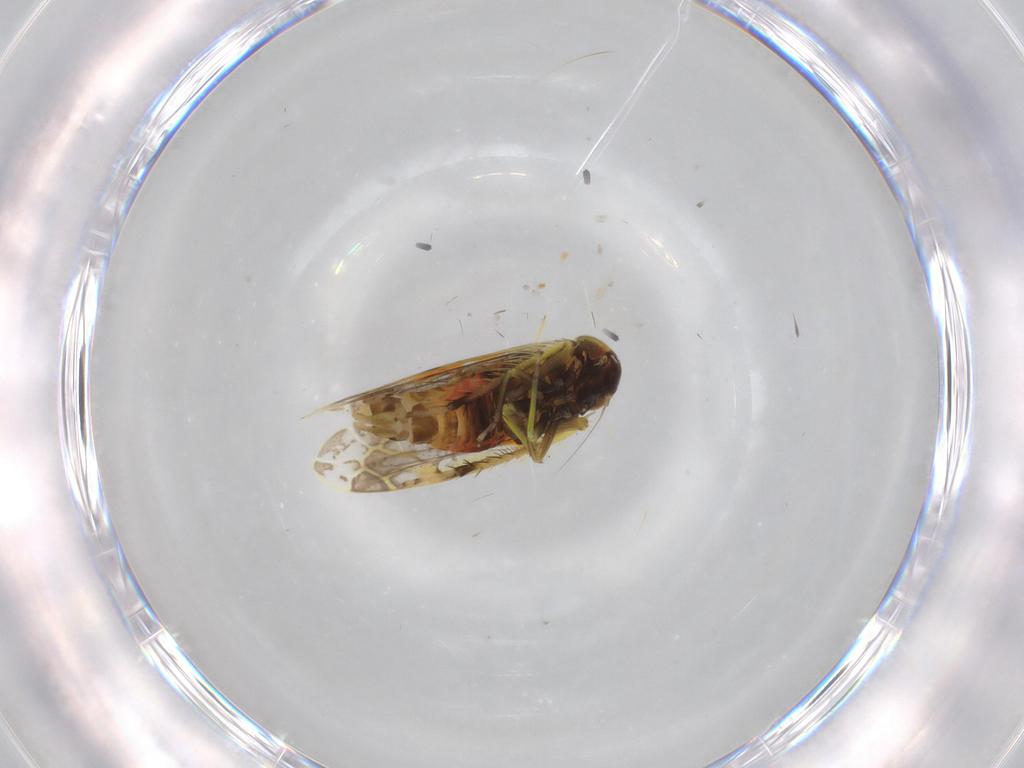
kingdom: Animalia
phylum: Arthropoda
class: Insecta
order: Hemiptera
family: Cicadellidae
